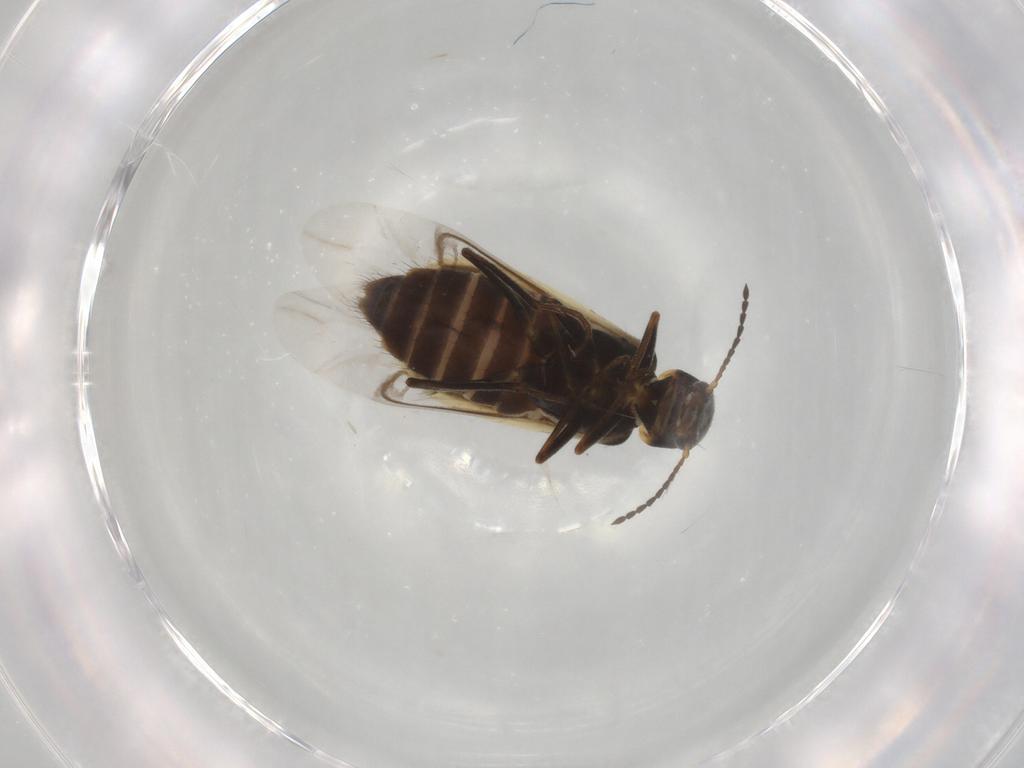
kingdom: Animalia
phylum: Arthropoda
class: Insecta
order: Coleoptera
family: Dasytidae
